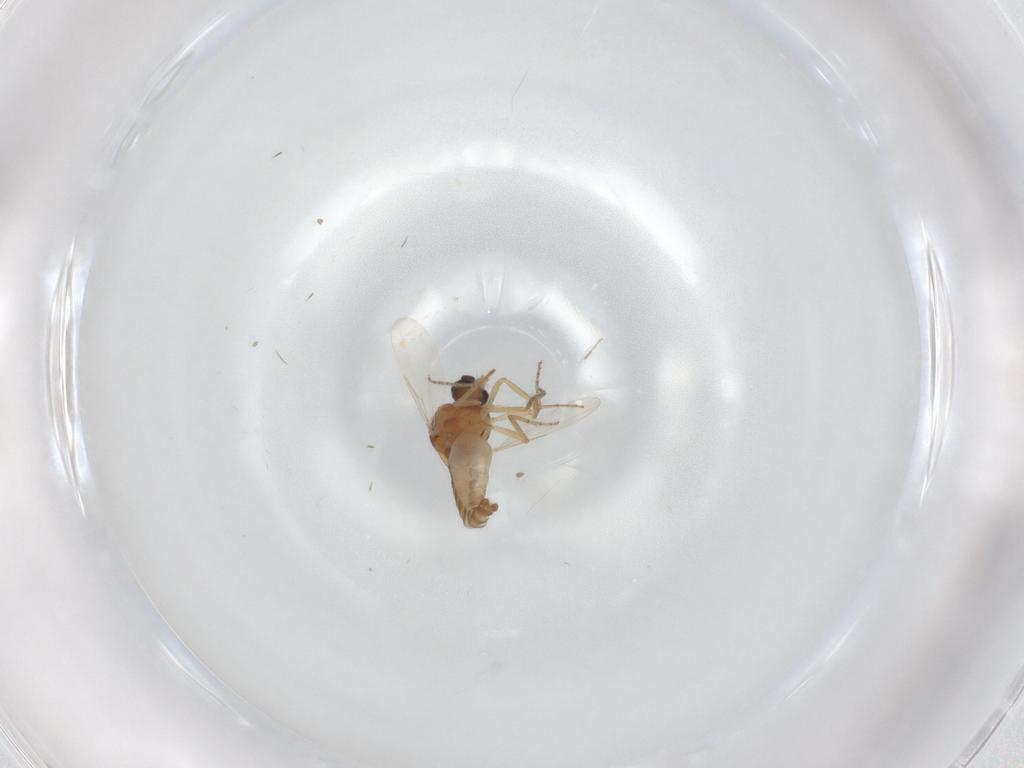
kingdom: Animalia
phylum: Arthropoda
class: Insecta
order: Diptera
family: Ceratopogonidae
